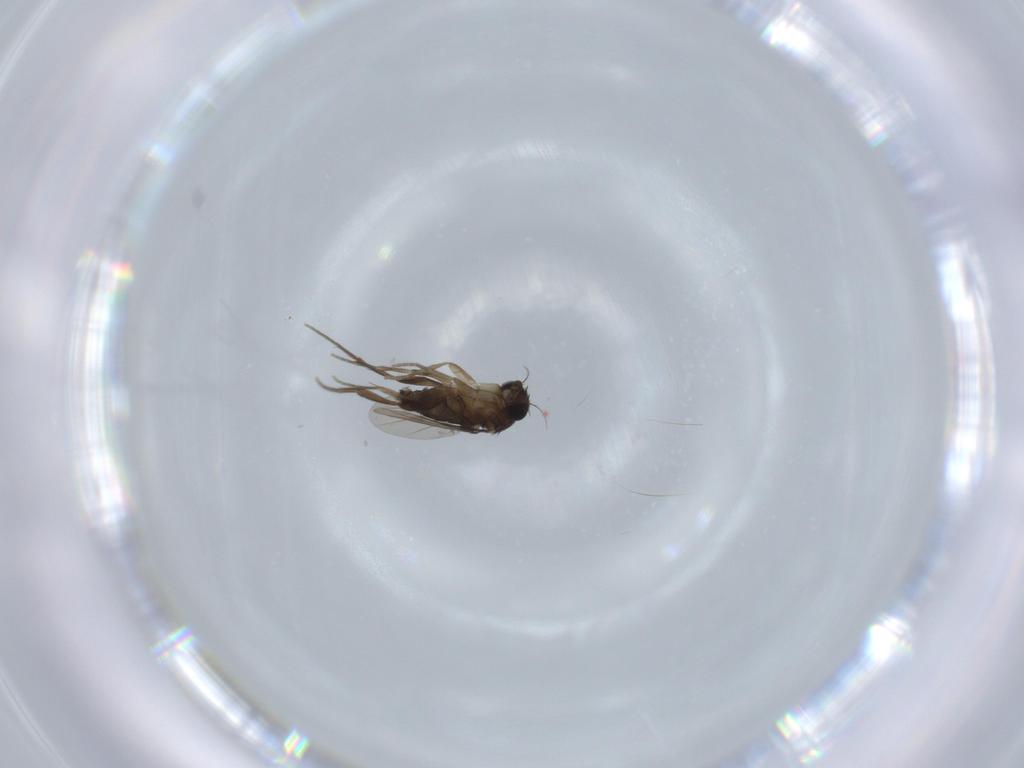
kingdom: Animalia
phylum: Arthropoda
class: Insecta
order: Diptera
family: Phoridae
